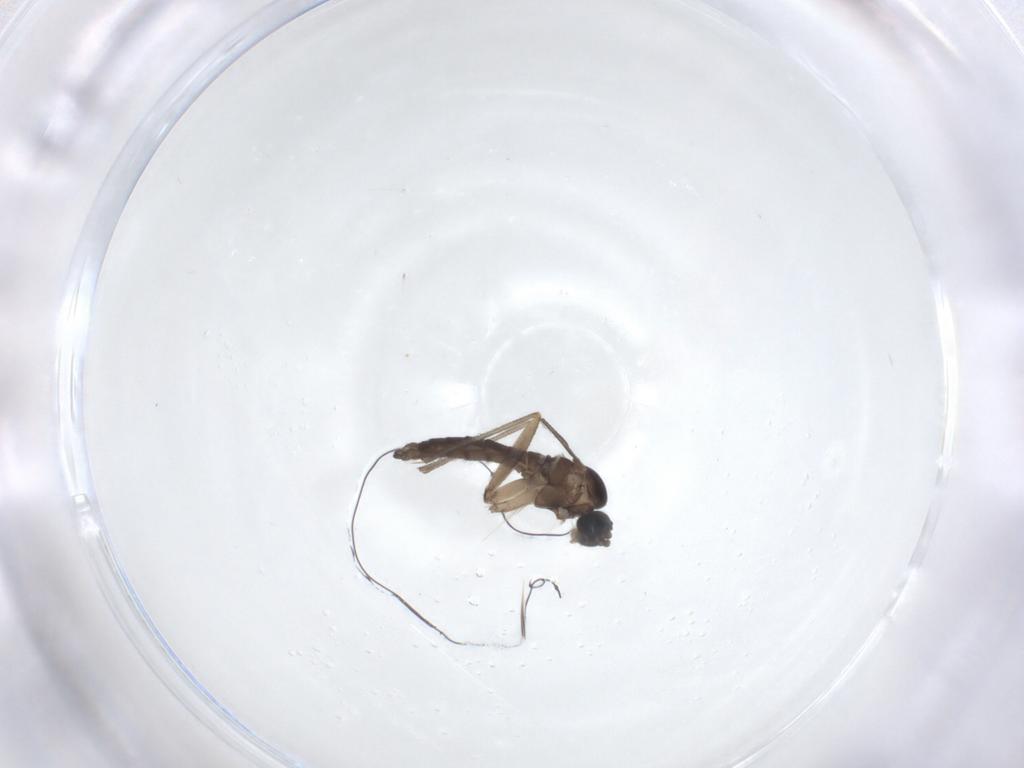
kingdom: Animalia
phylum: Arthropoda
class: Insecta
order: Diptera
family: Sciaridae
